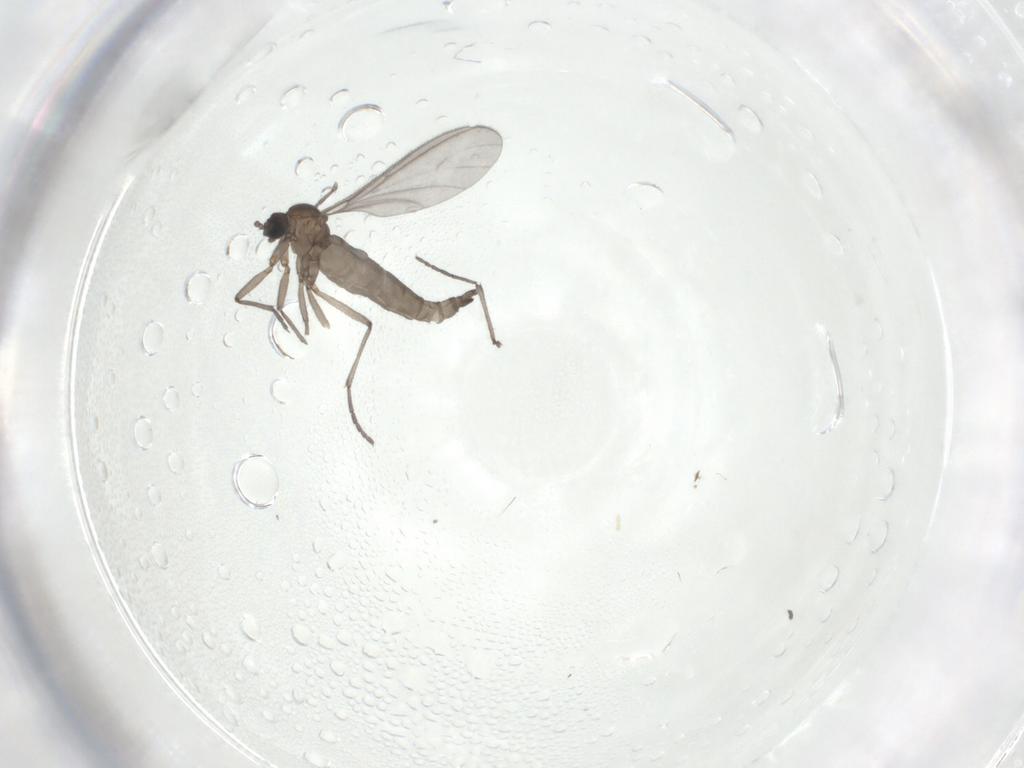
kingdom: Animalia
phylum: Arthropoda
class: Insecta
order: Diptera
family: Sciaridae
